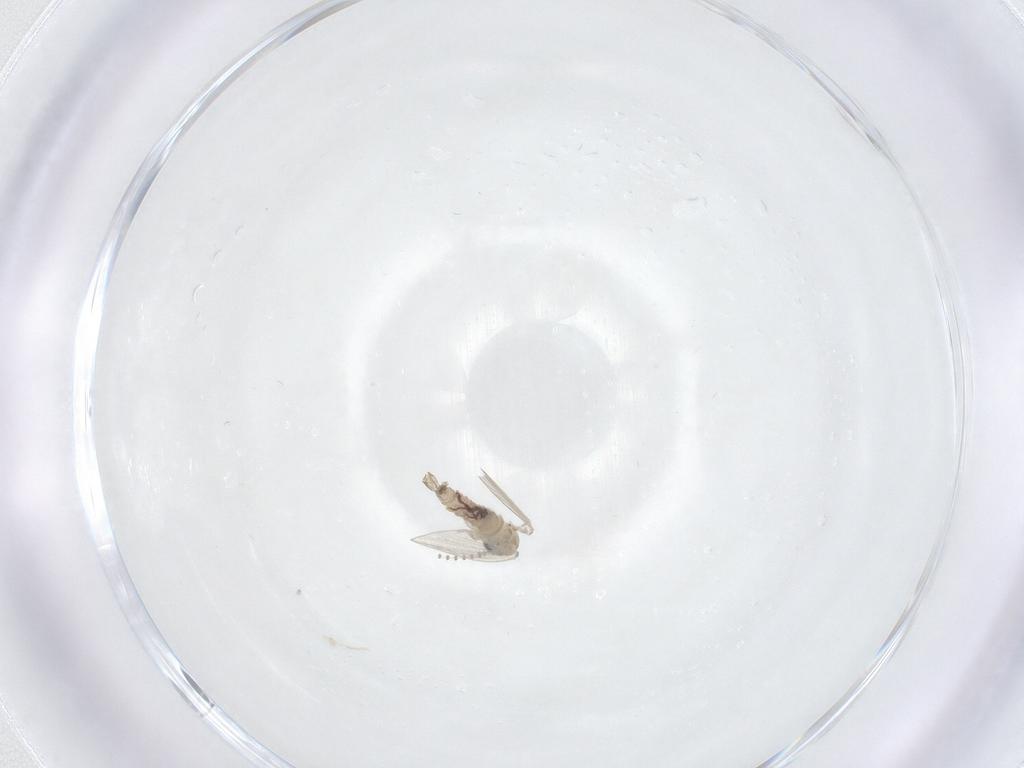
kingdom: Animalia
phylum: Arthropoda
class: Insecta
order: Diptera
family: Psychodidae
